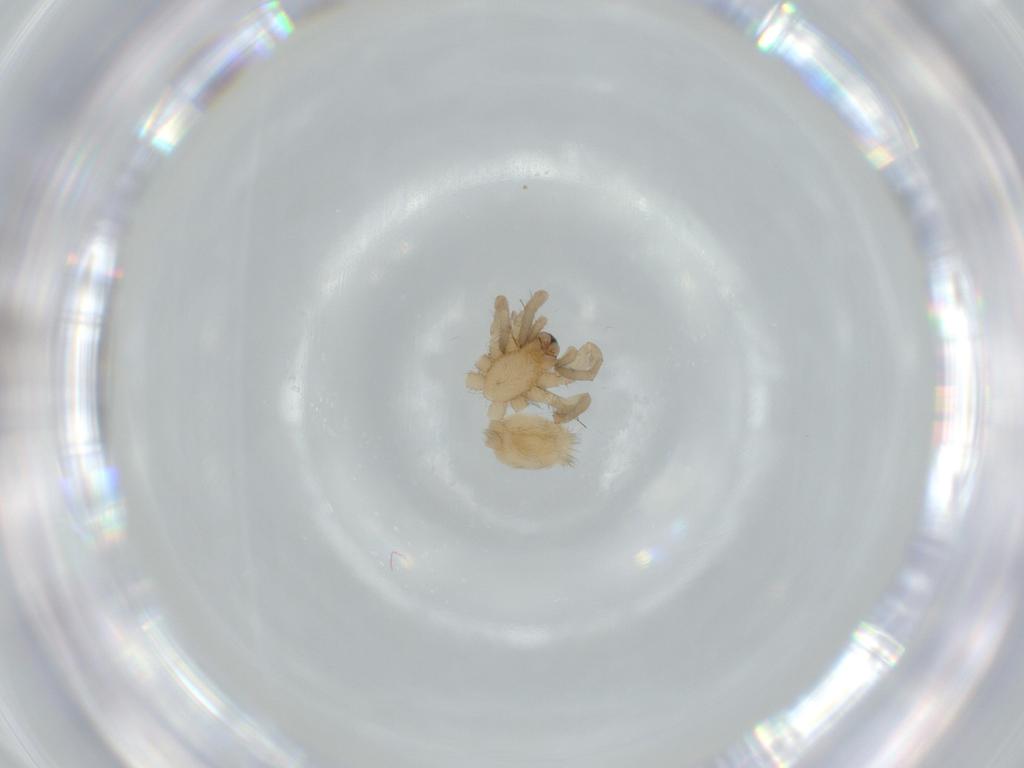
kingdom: Animalia
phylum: Arthropoda
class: Arachnida
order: Araneae
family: Gnaphosidae
